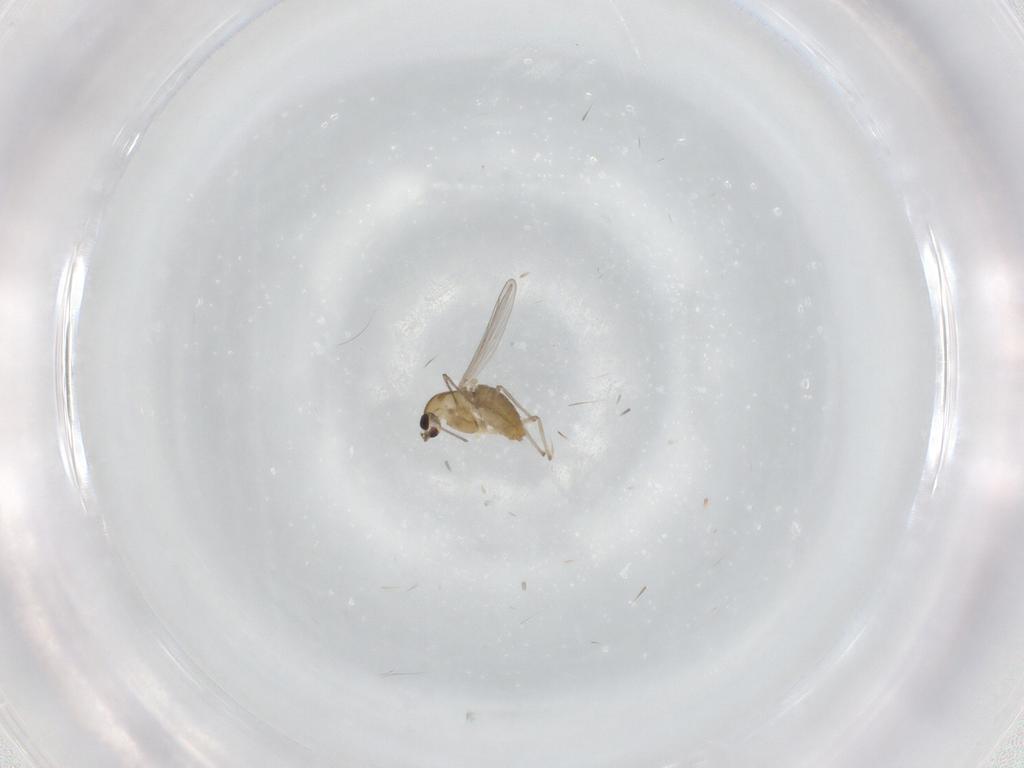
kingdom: Animalia
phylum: Arthropoda
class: Insecta
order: Diptera
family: Chironomidae
